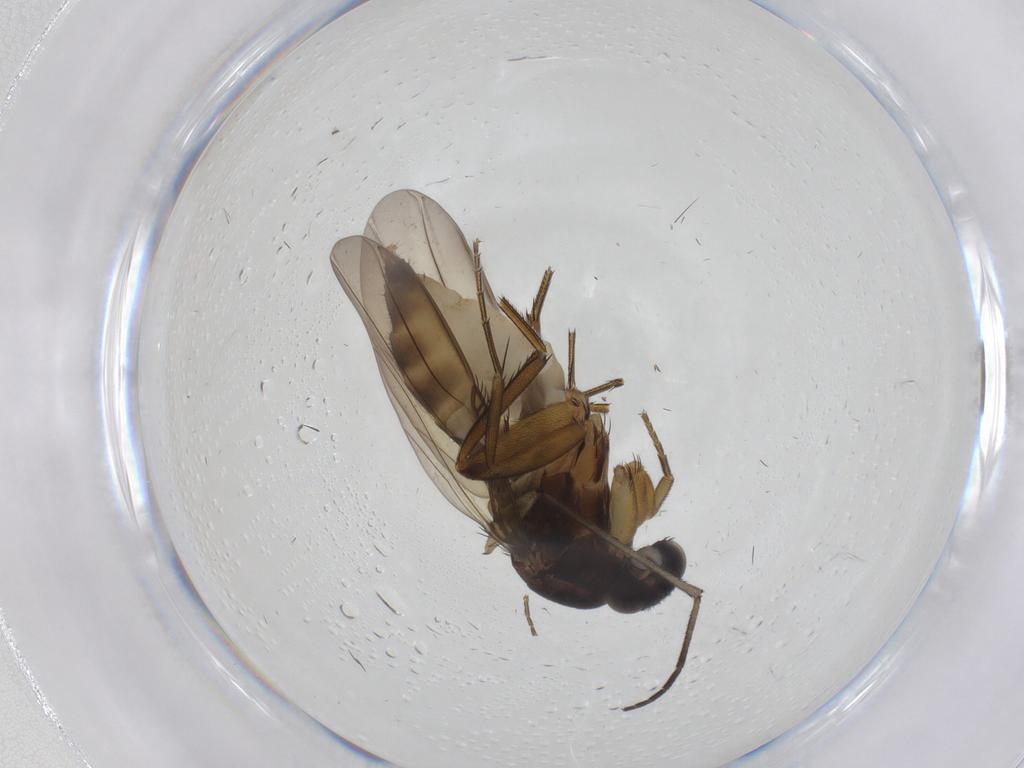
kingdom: Animalia
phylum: Arthropoda
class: Insecta
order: Diptera
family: Phoridae
